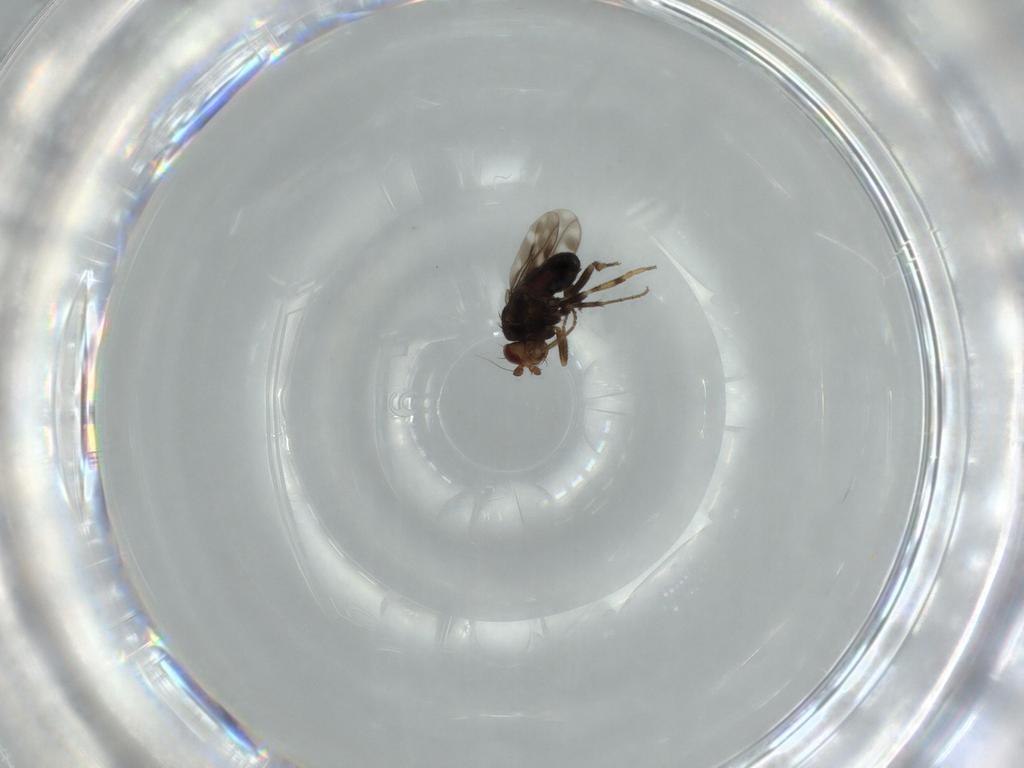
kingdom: Animalia
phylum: Arthropoda
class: Insecta
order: Diptera
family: Sphaeroceridae
